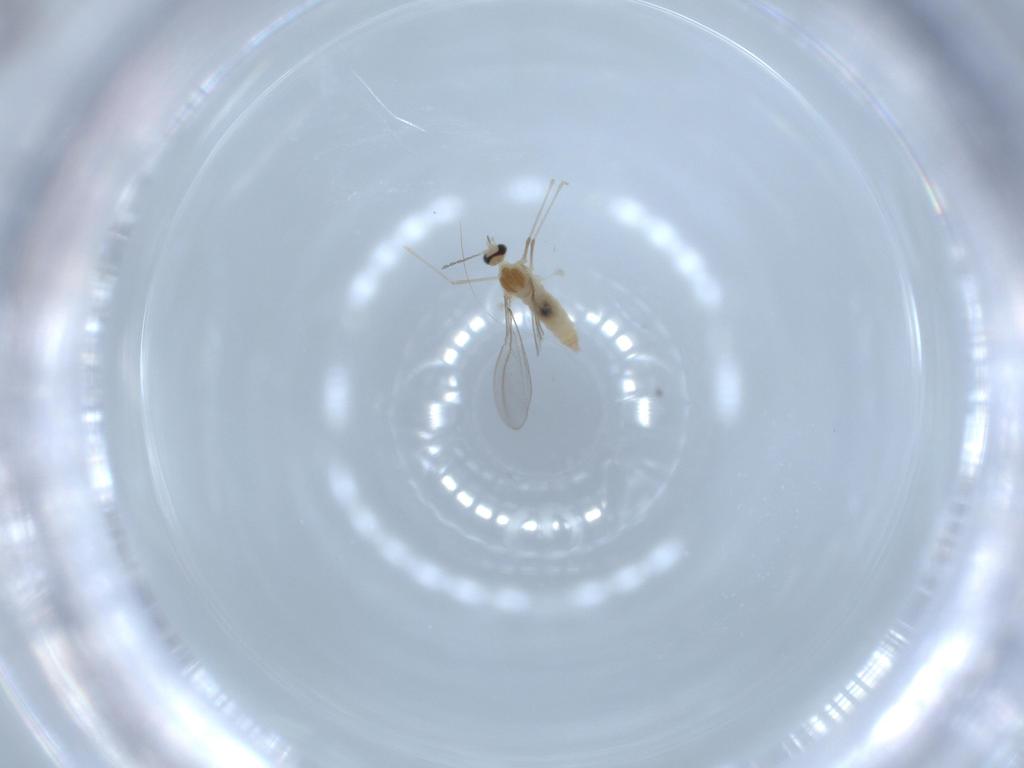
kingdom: Animalia
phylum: Arthropoda
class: Insecta
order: Diptera
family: Cecidomyiidae
